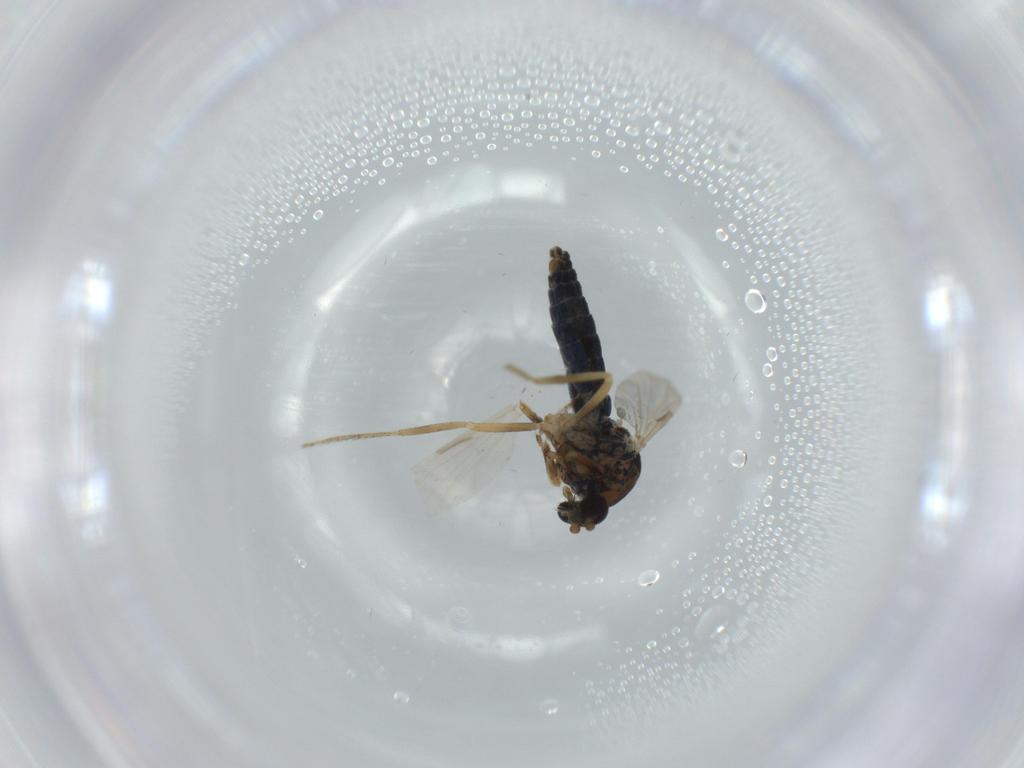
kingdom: Animalia
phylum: Arthropoda
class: Insecta
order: Diptera
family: Ceratopogonidae
